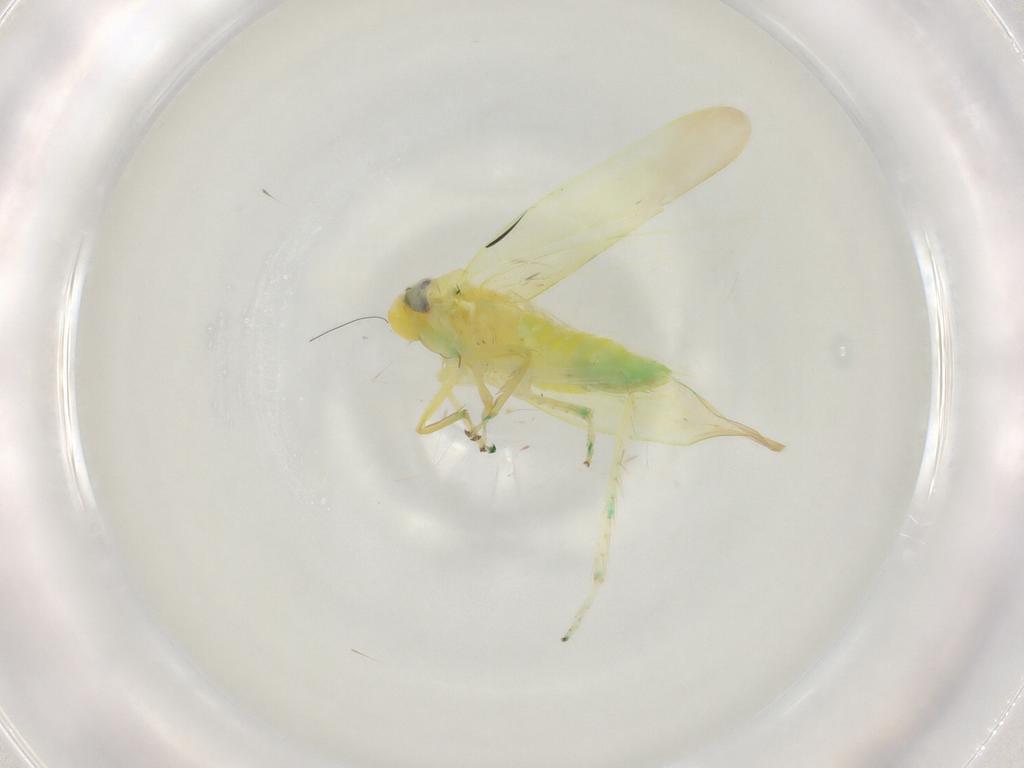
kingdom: Animalia
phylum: Arthropoda
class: Insecta
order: Hemiptera
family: Cicadellidae
